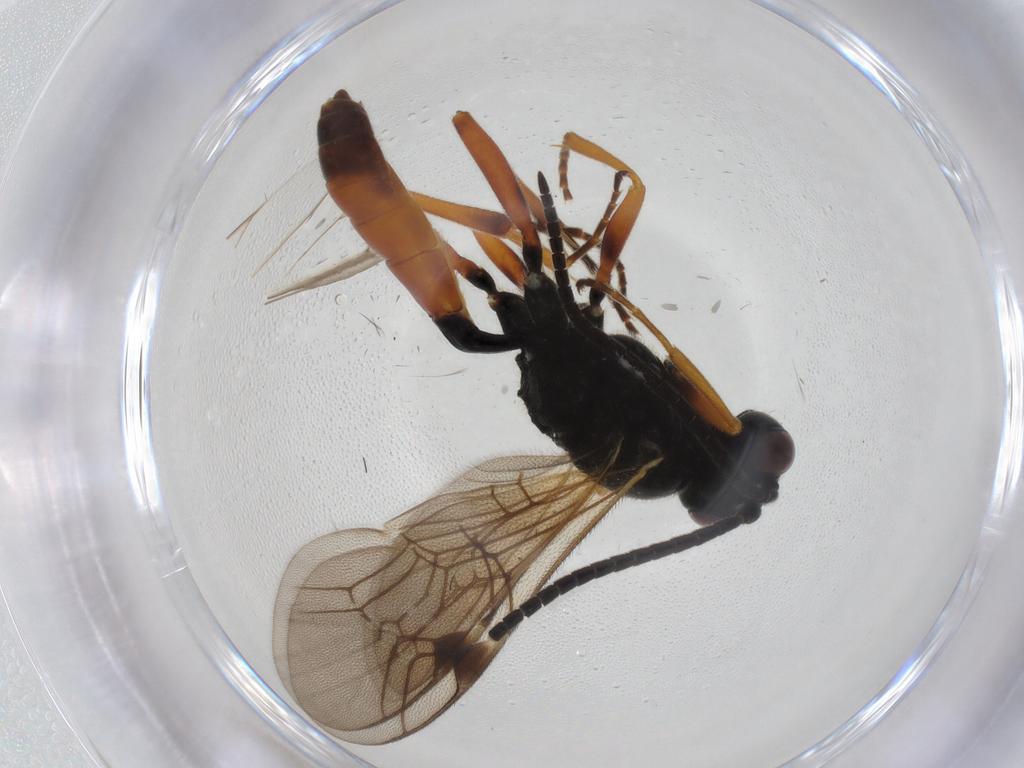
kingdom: Animalia
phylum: Arthropoda
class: Insecta
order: Hymenoptera
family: Ichneumonidae
